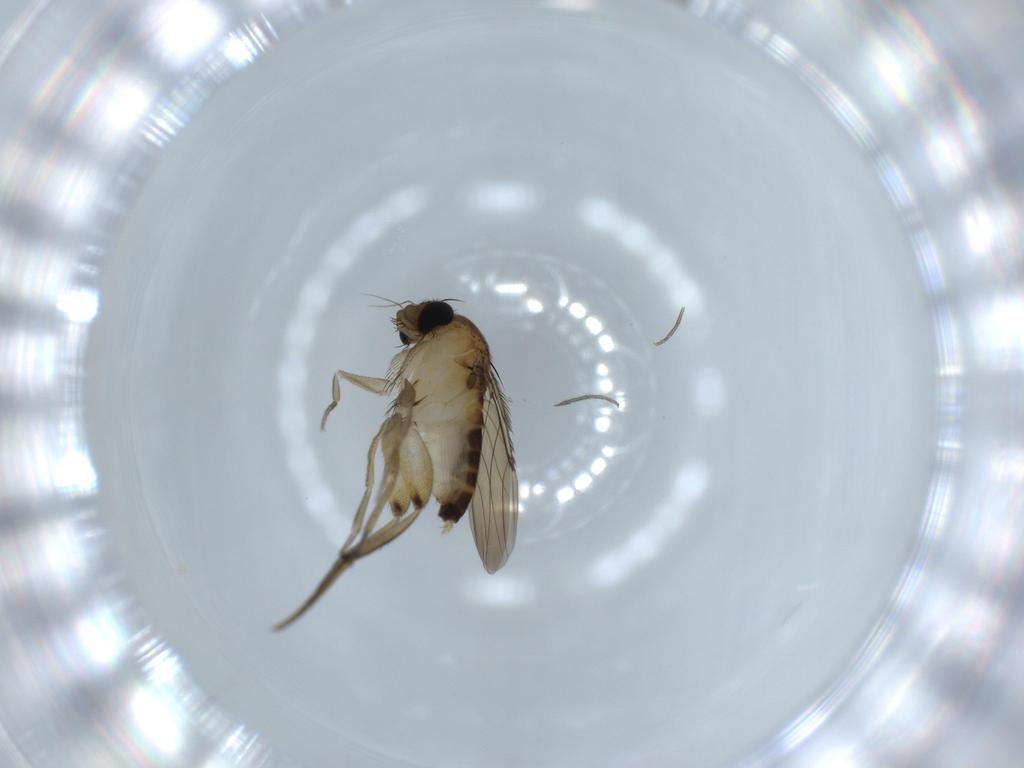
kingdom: Animalia
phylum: Arthropoda
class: Insecta
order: Diptera
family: Phoridae
